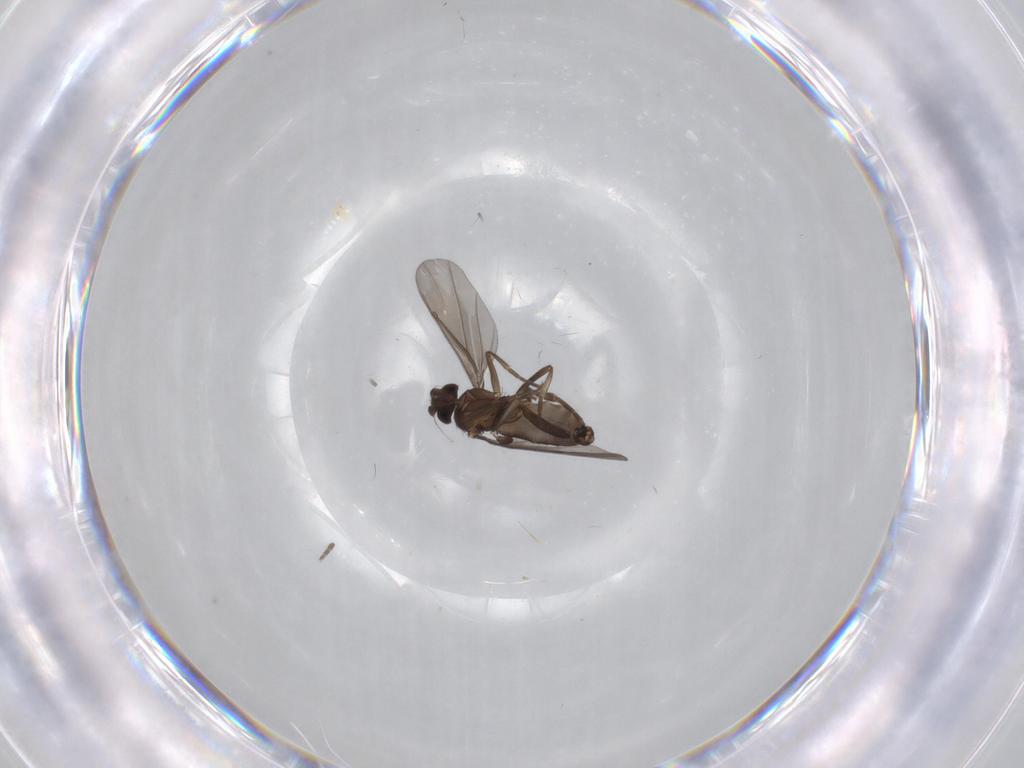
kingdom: Animalia
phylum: Arthropoda
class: Insecta
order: Diptera
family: Phoridae
